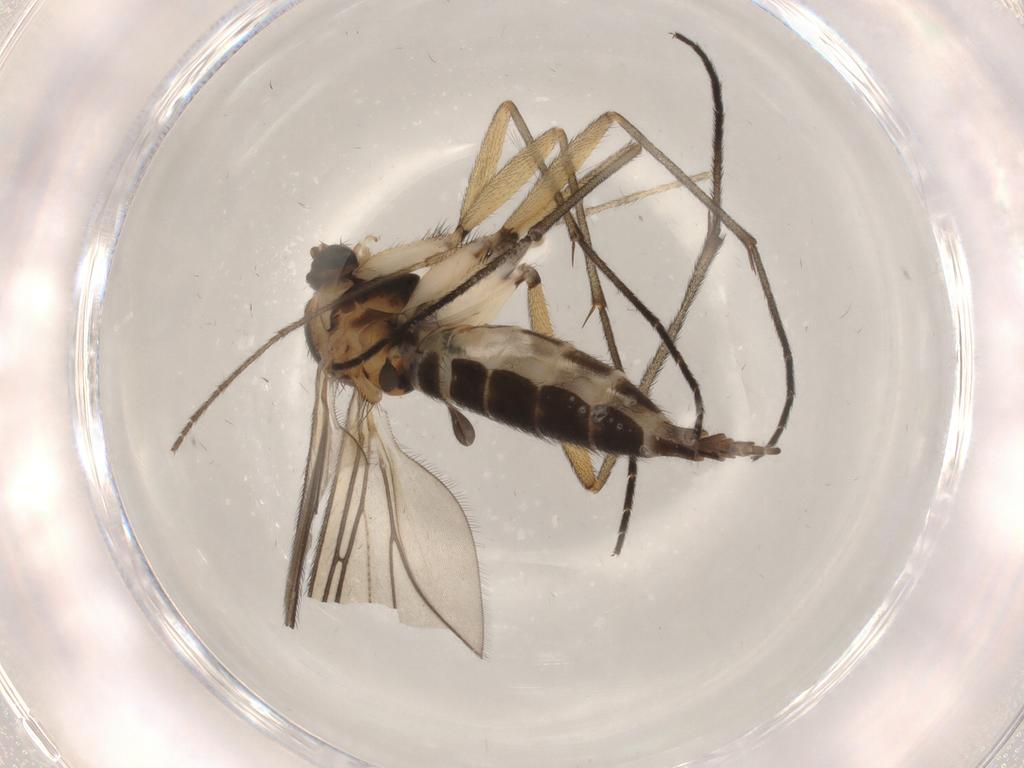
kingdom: Animalia
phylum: Arthropoda
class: Insecta
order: Diptera
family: Sciaridae
